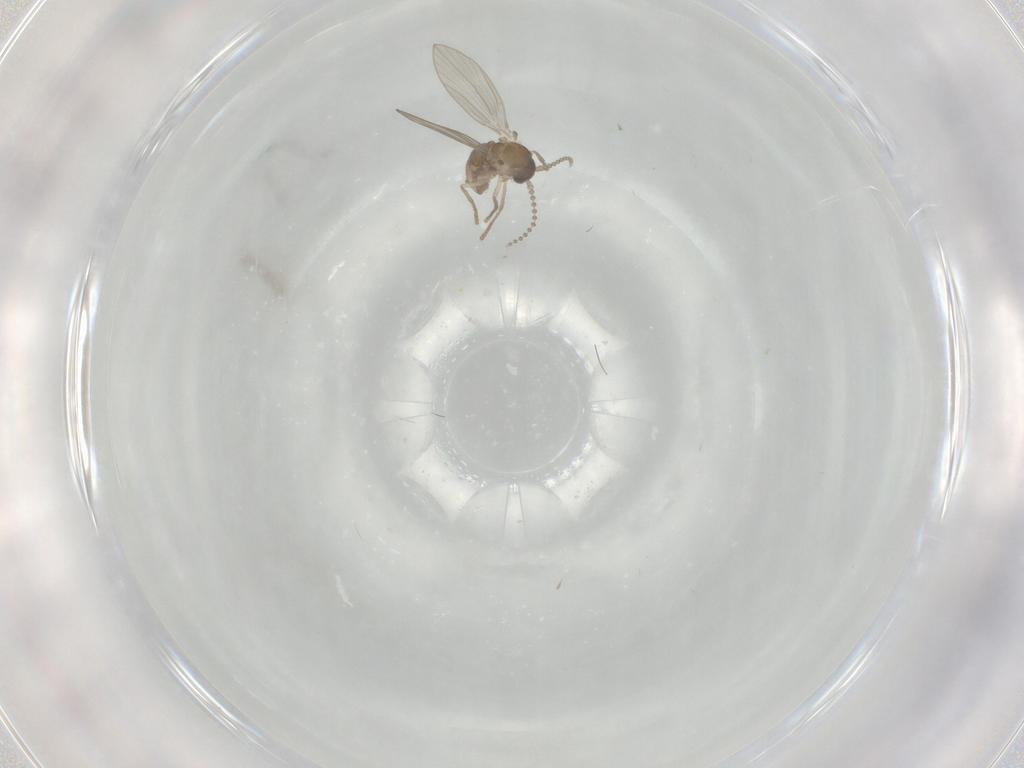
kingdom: Animalia
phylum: Arthropoda
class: Insecta
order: Diptera
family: Psychodidae
